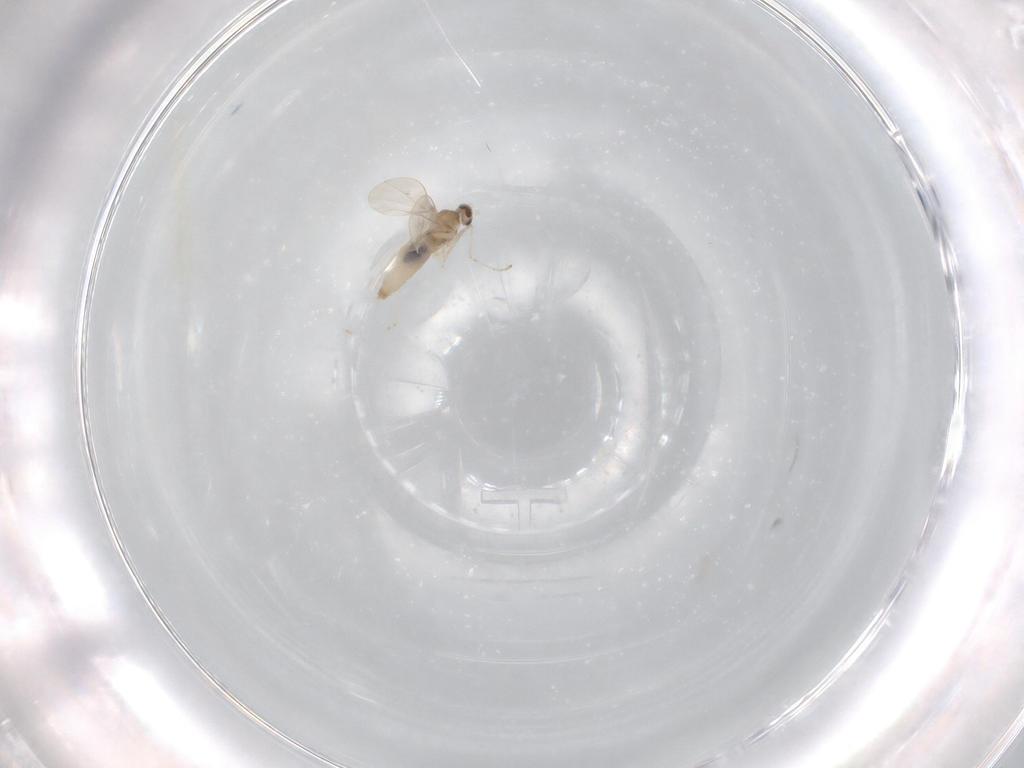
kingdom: Animalia
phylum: Arthropoda
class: Insecta
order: Diptera
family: Cecidomyiidae
